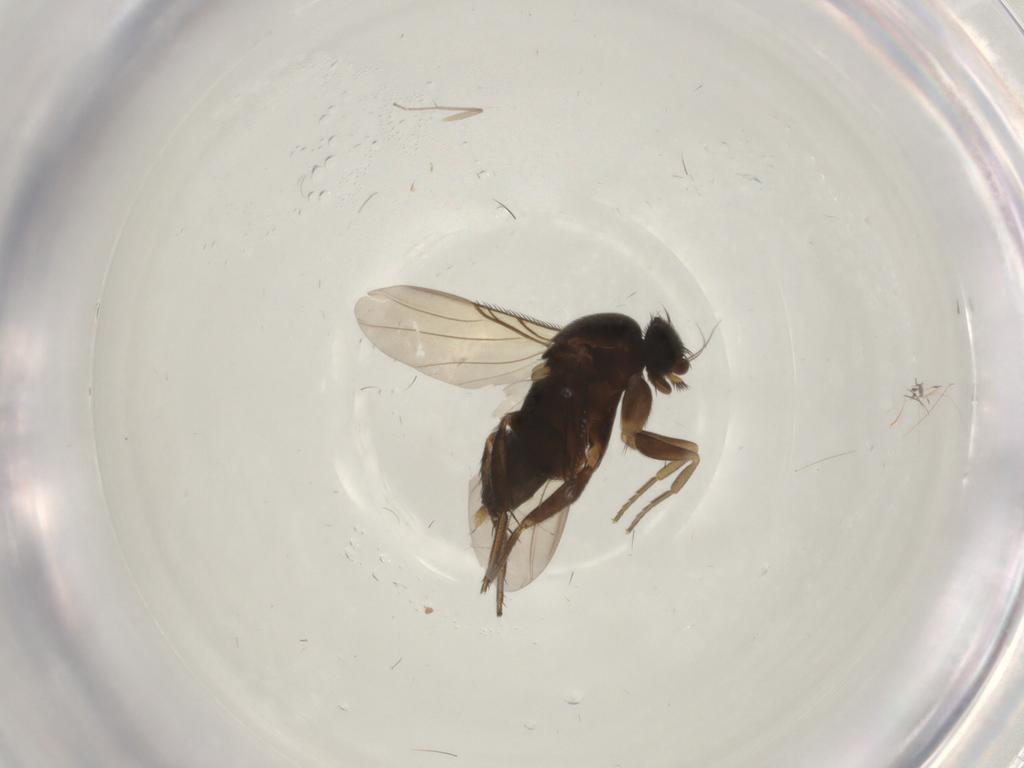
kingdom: Animalia
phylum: Arthropoda
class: Insecta
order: Diptera
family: Phoridae
